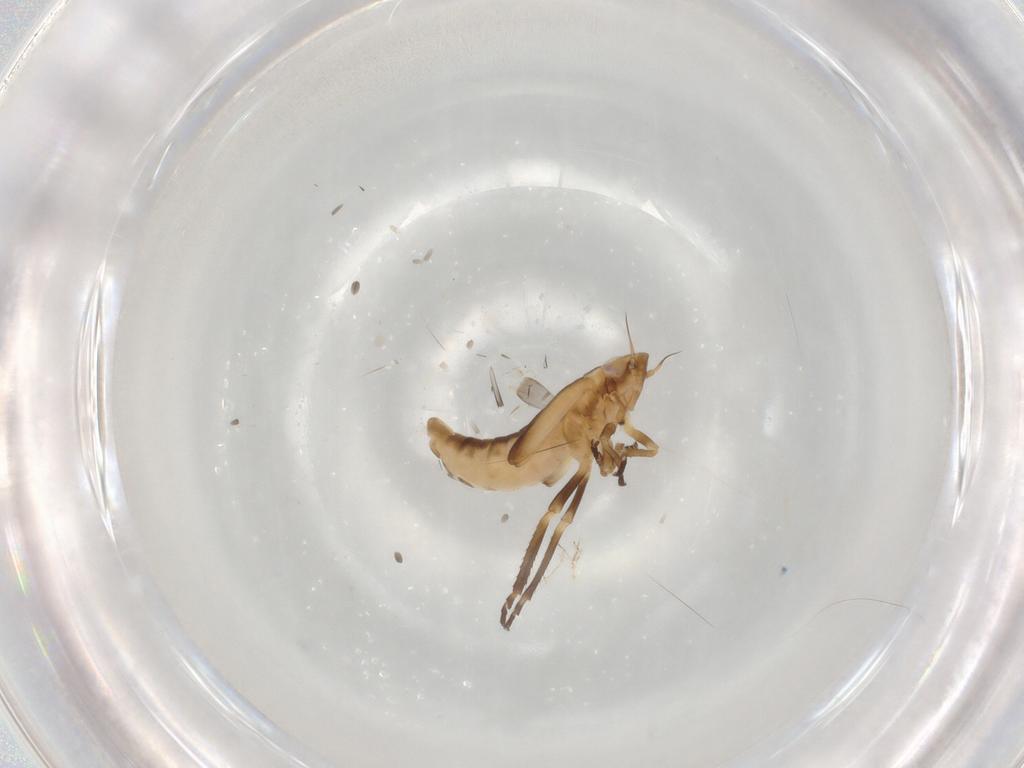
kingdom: Animalia
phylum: Arthropoda
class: Insecta
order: Hemiptera
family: Cicadellidae
